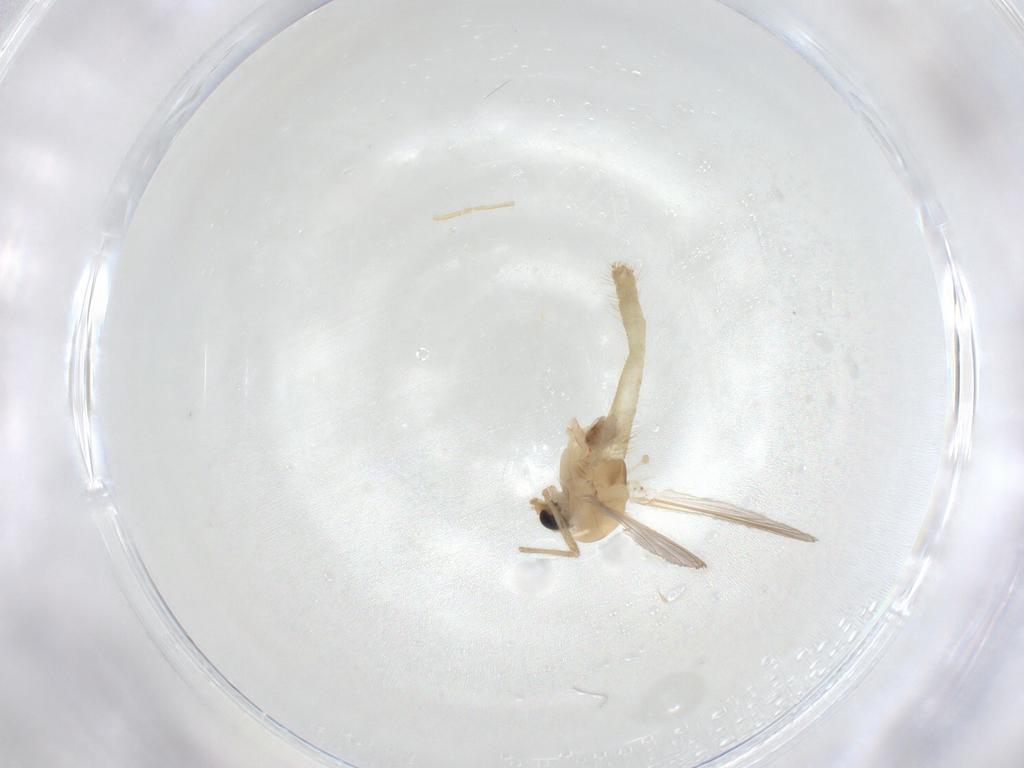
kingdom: Animalia
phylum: Arthropoda
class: Insecta
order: Diptera
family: Chironomidae
